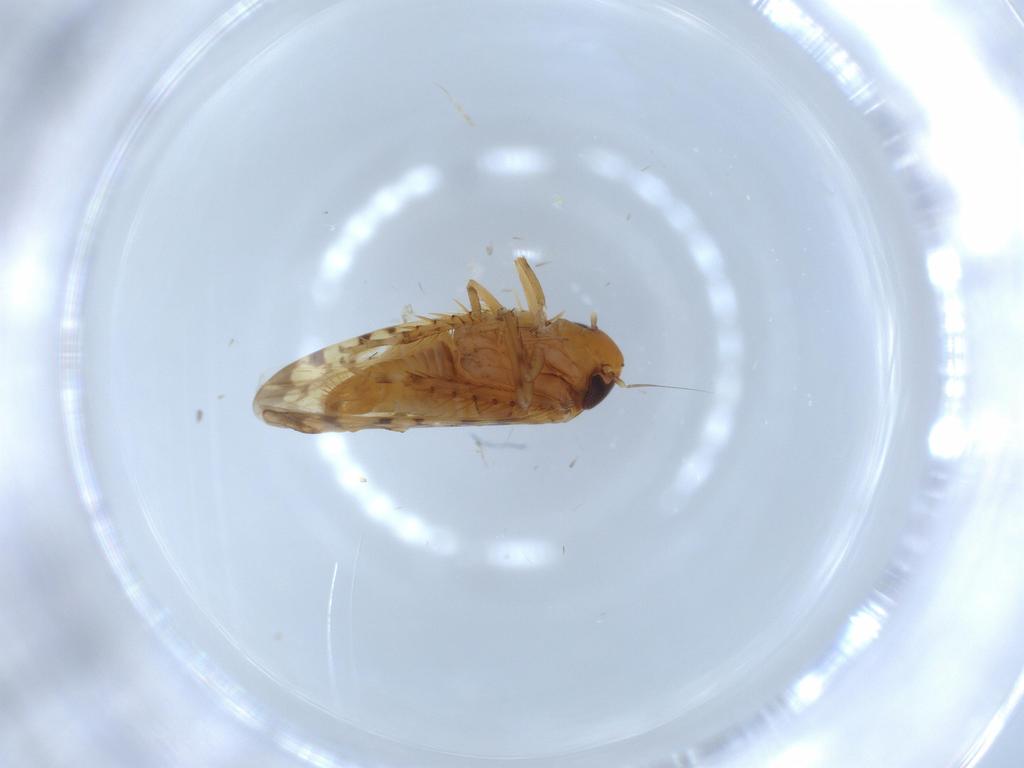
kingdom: Animalia
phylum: Arthropoda
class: Insecta
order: Hemiptera
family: Cicadellidae
